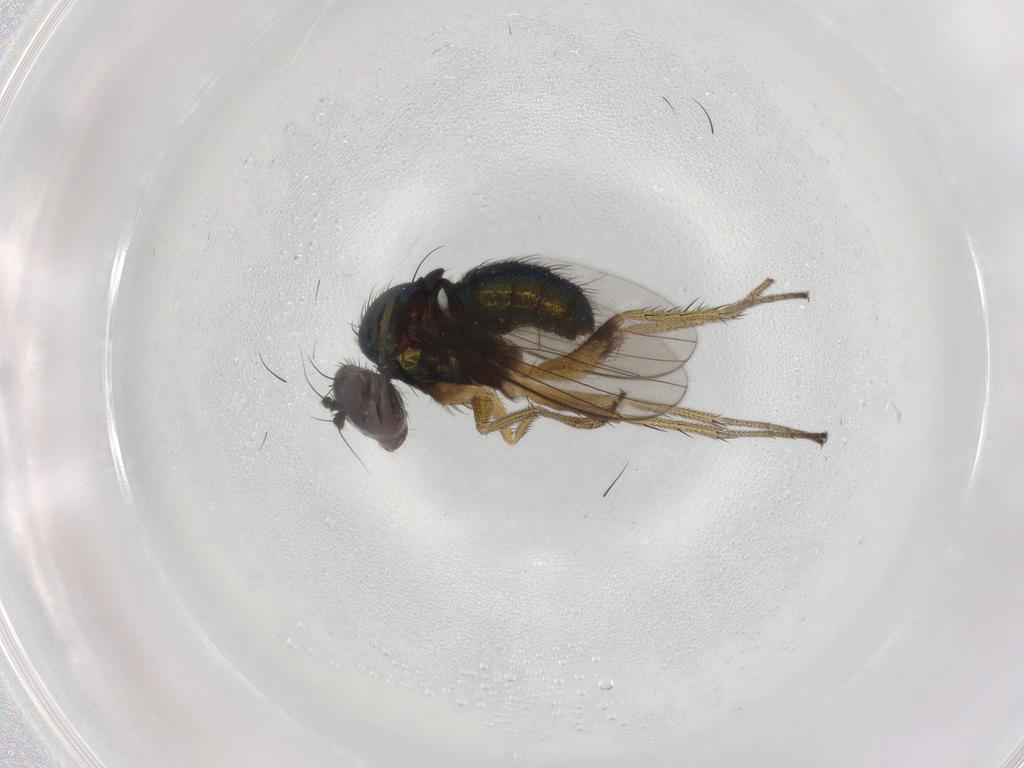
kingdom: Animalia
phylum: Arthropoda
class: Insecta
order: Diptera
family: Dolichopodidae
